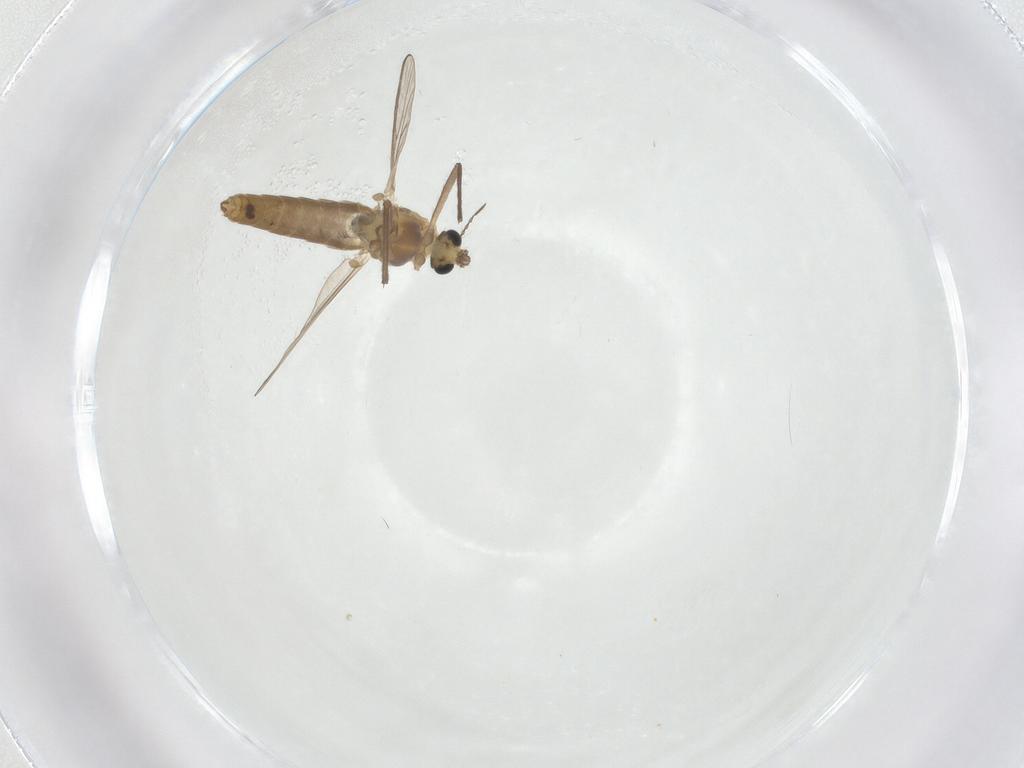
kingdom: Animalia
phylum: Arthropoda
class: Insecta
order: Diptera
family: Chironomidae
